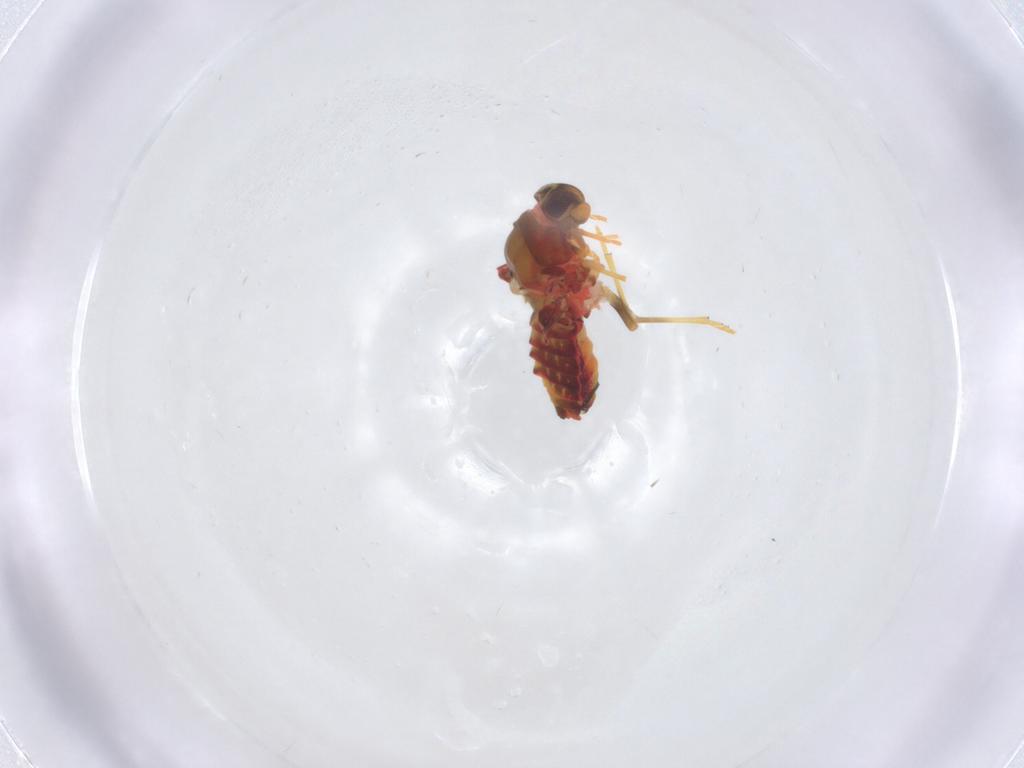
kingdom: Animalia
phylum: Arthropoda
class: Insecta
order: Hemiptera
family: Derbidae
